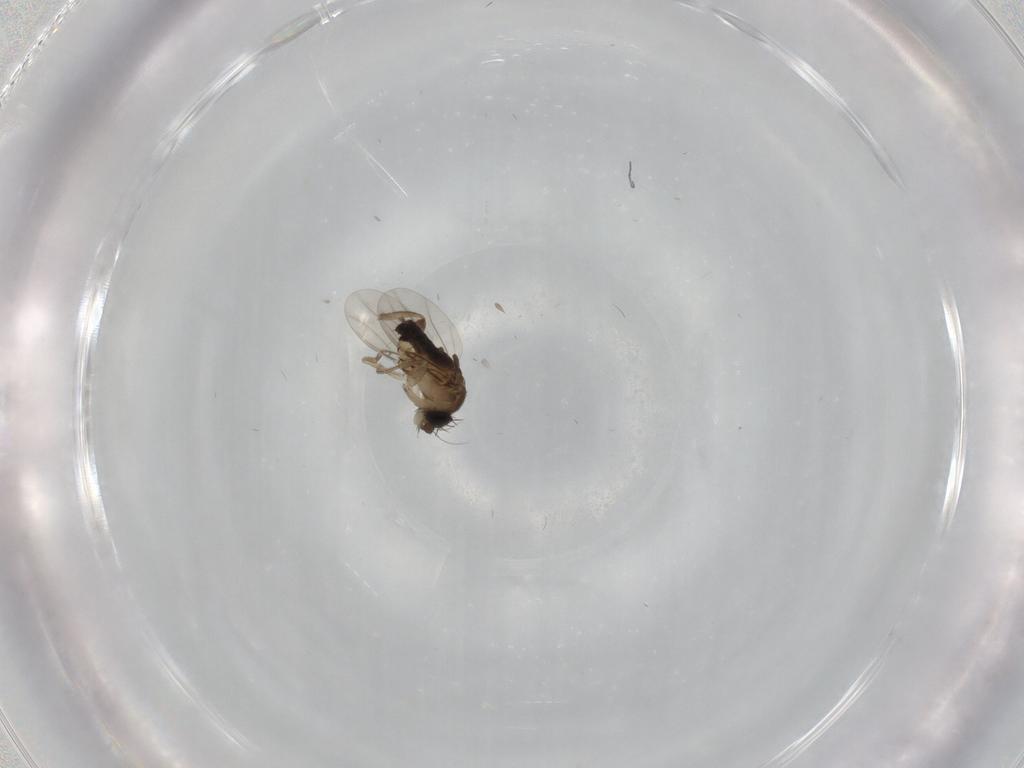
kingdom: Animalia
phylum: Arthropoda
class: Insecta
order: Diptera
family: Phoridae
